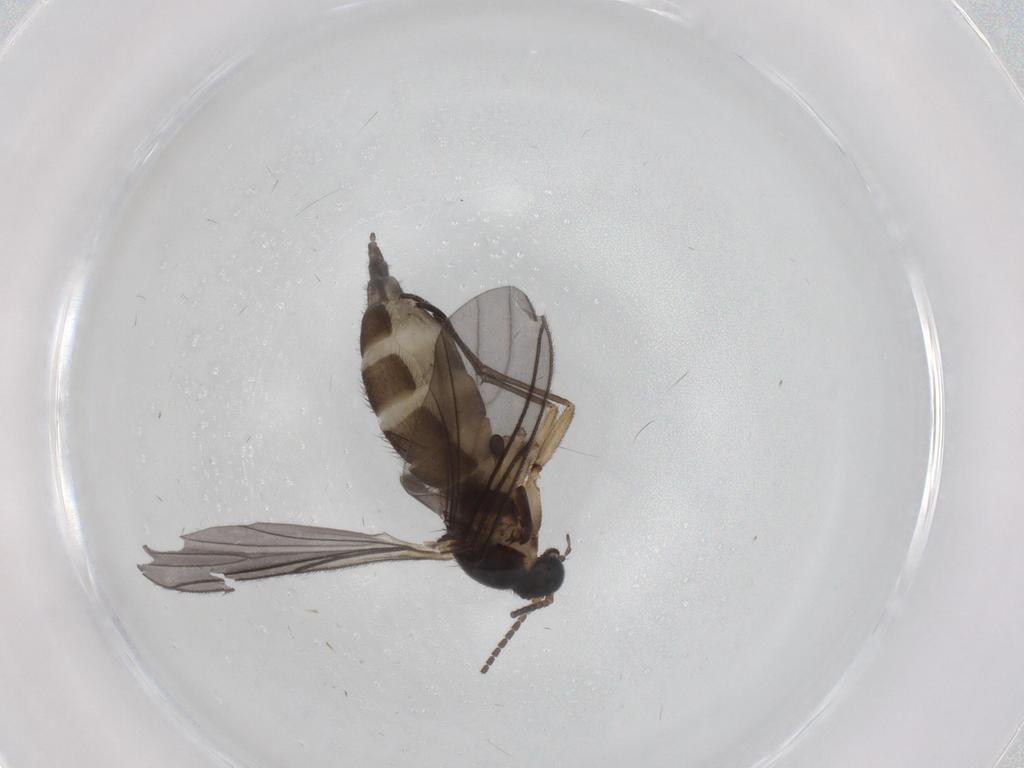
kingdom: Animalia
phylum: Arthropoda
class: Insecta
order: Diptera
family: Sciaridae
